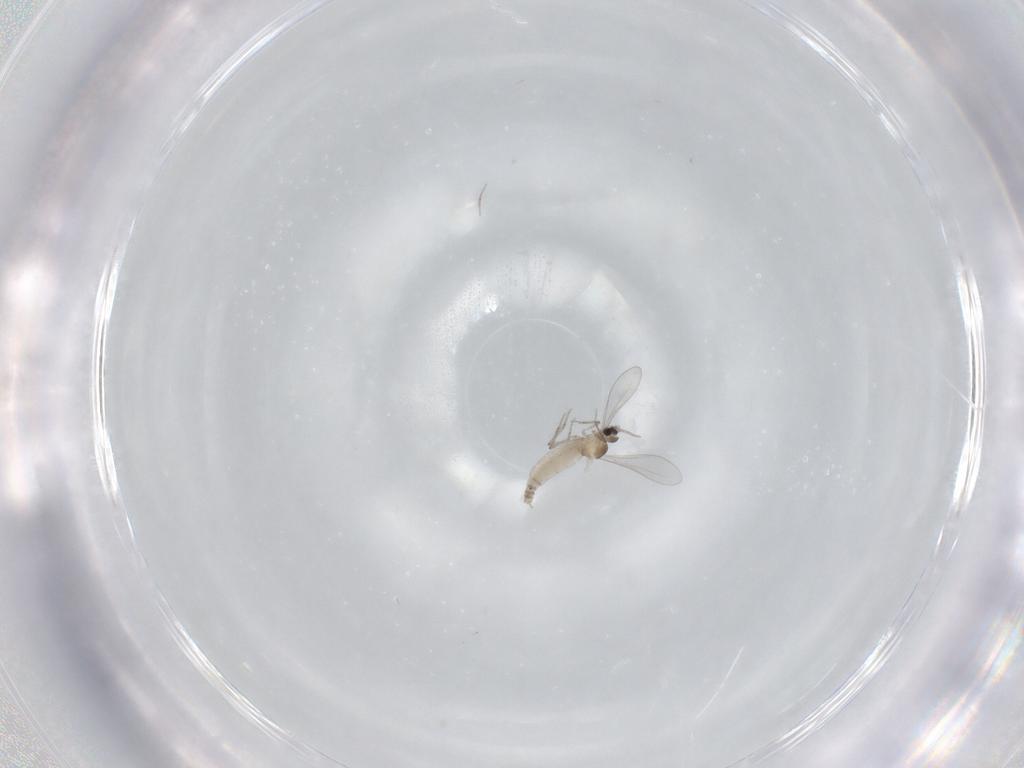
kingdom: Animalia
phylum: Arthropoda
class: Insecta
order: Diptera
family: Cecidomyiidae
